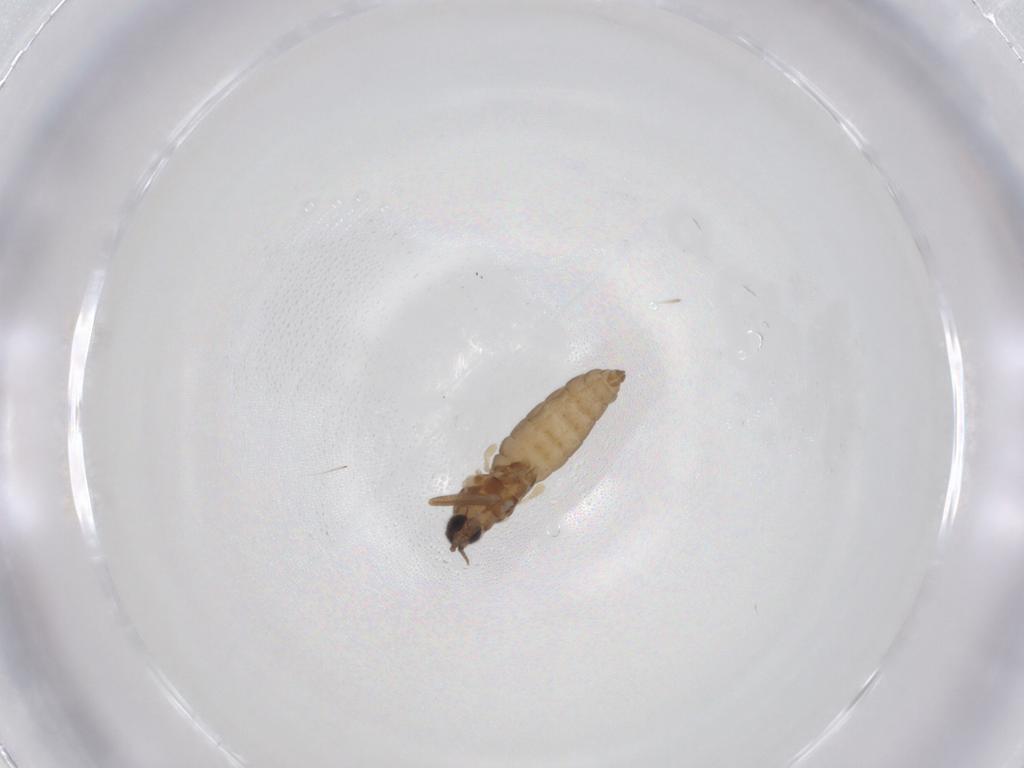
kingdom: Animalia
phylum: Arthropoda
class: Insecta
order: Diptera
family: Cecidomyiidae
